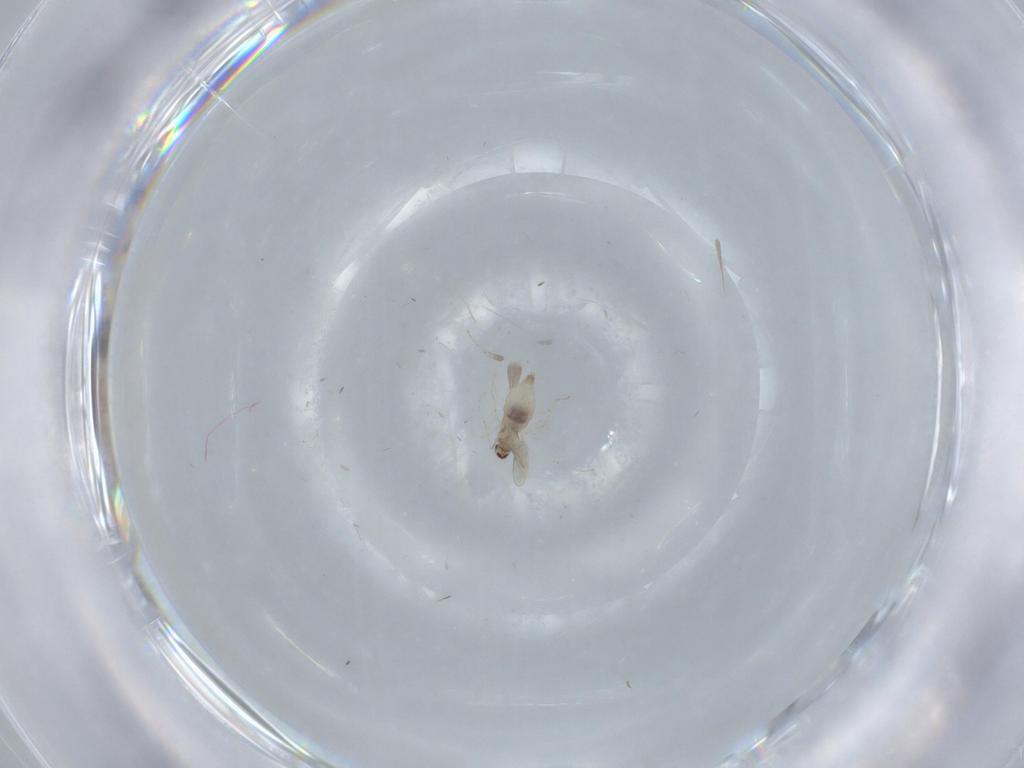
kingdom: Animalia
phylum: Arthropoda
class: Insecta
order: Diptera
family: Cecidomyiidae
